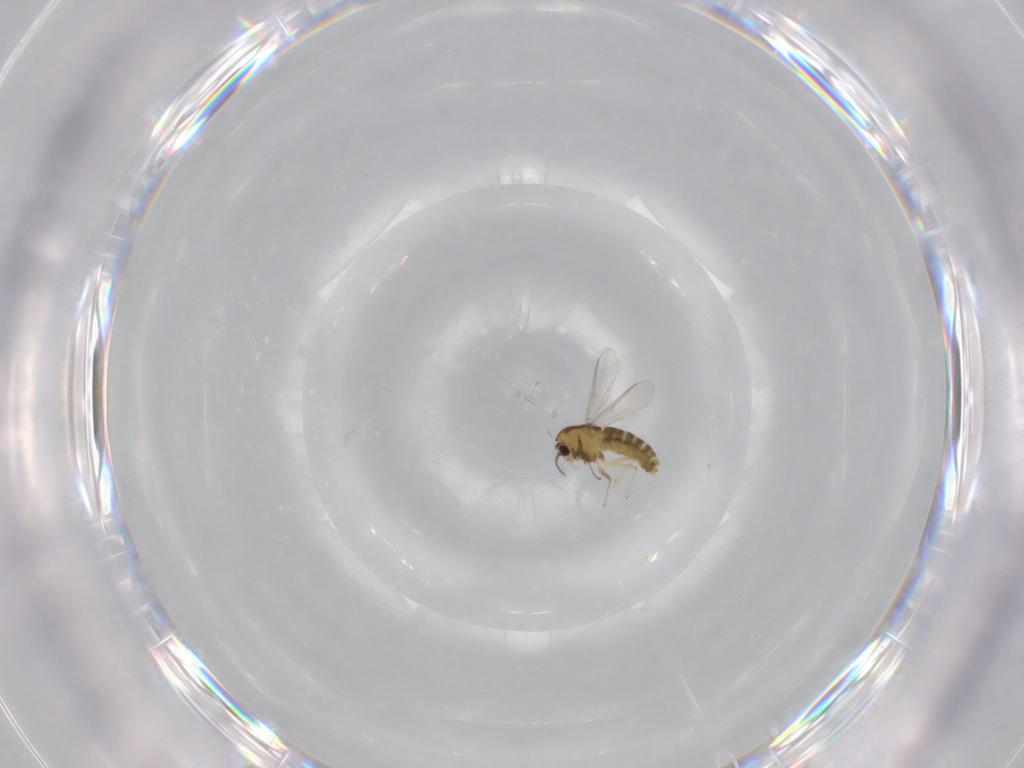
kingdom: Animalia
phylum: Arthropoda
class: Insecta
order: Diptera
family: Chironomidae
